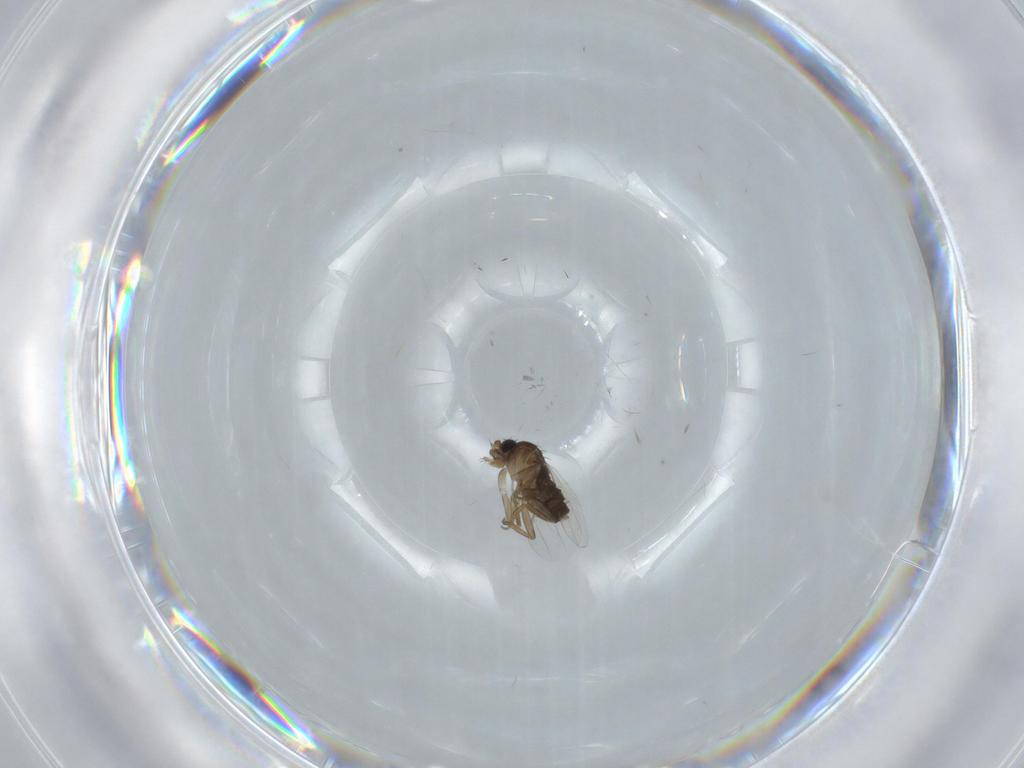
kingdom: Animalia
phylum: Arthropoda
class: Insecta
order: Diptera
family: Phoridae
